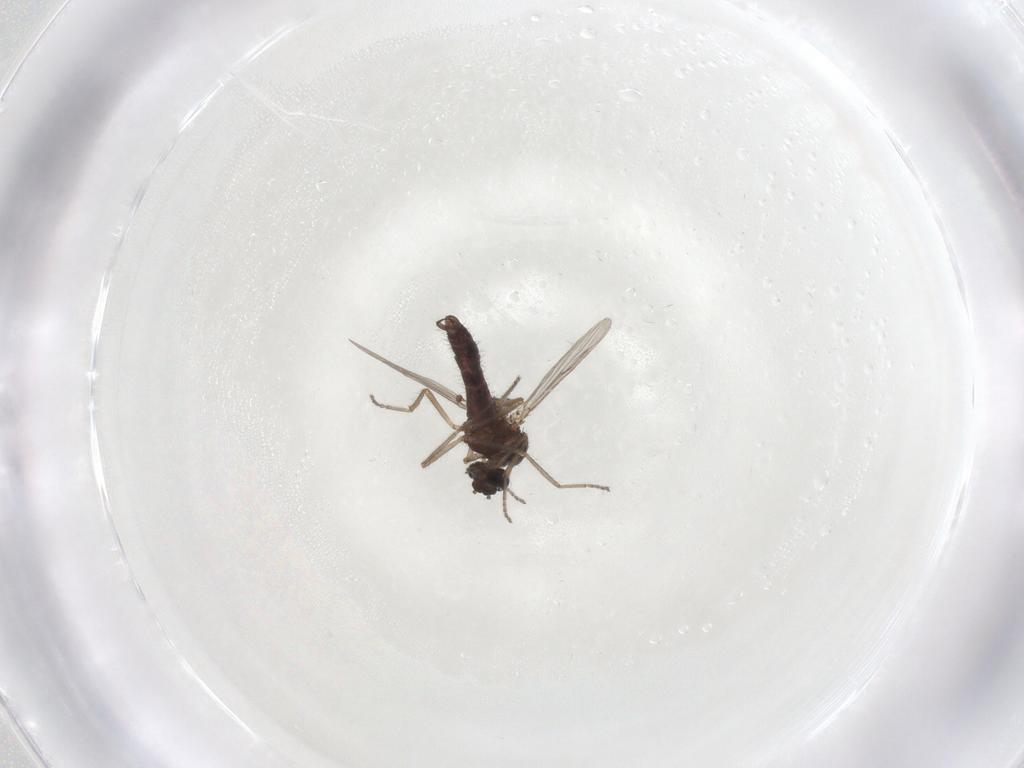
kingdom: Animalia
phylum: Arthropoda
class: Insecta
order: Diptera
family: Ceratopogonidae
